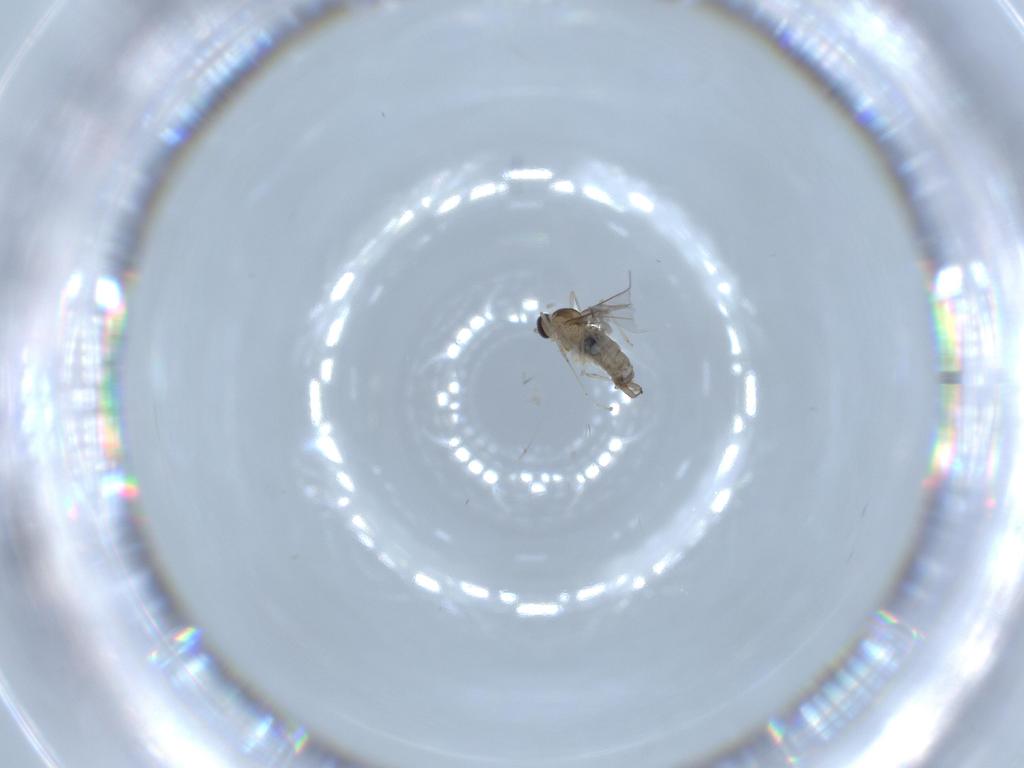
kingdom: Animalia
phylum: Arthropoda
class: Insecta
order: Diptera
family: Cecidomyiidae
